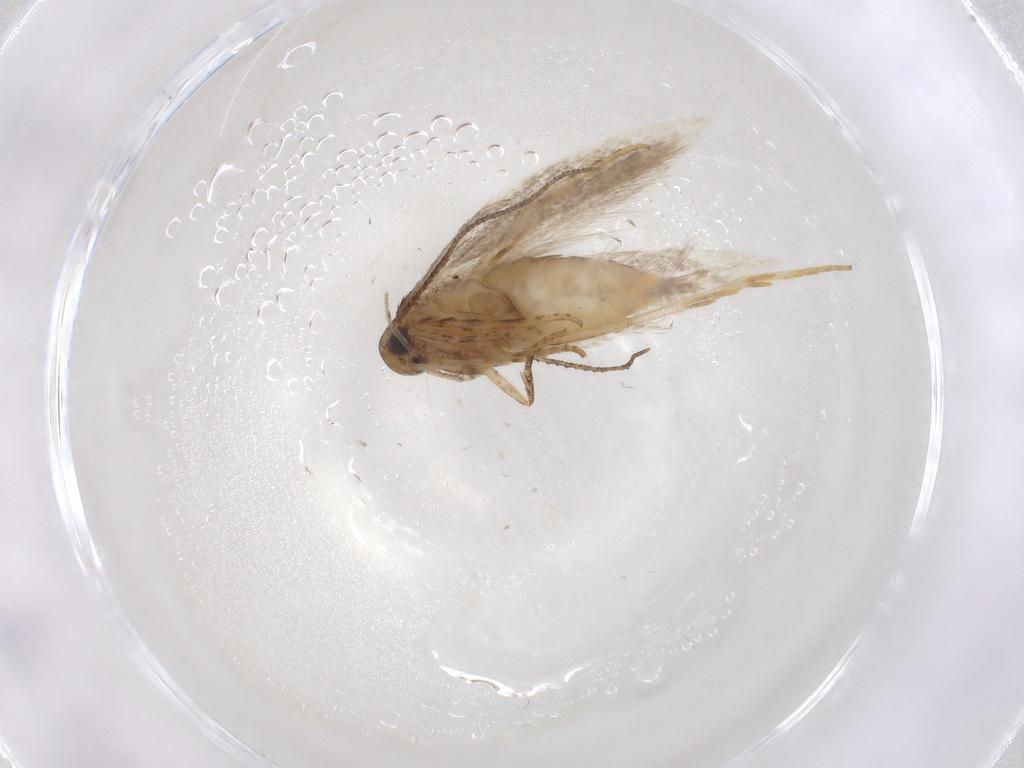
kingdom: Animalia
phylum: Arthropoda
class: Insecta
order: Lepidoptera
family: Gelechiidae
